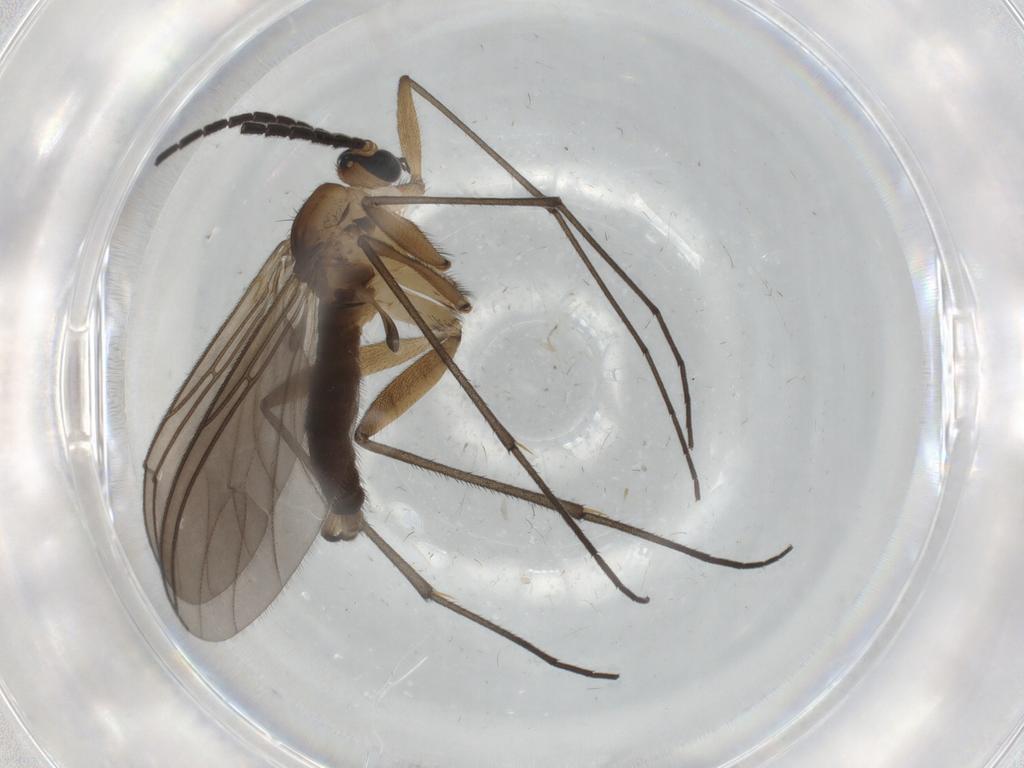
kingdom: Animalia
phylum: Arthropoda
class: Insecta
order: Diptera
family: Sciaridae
